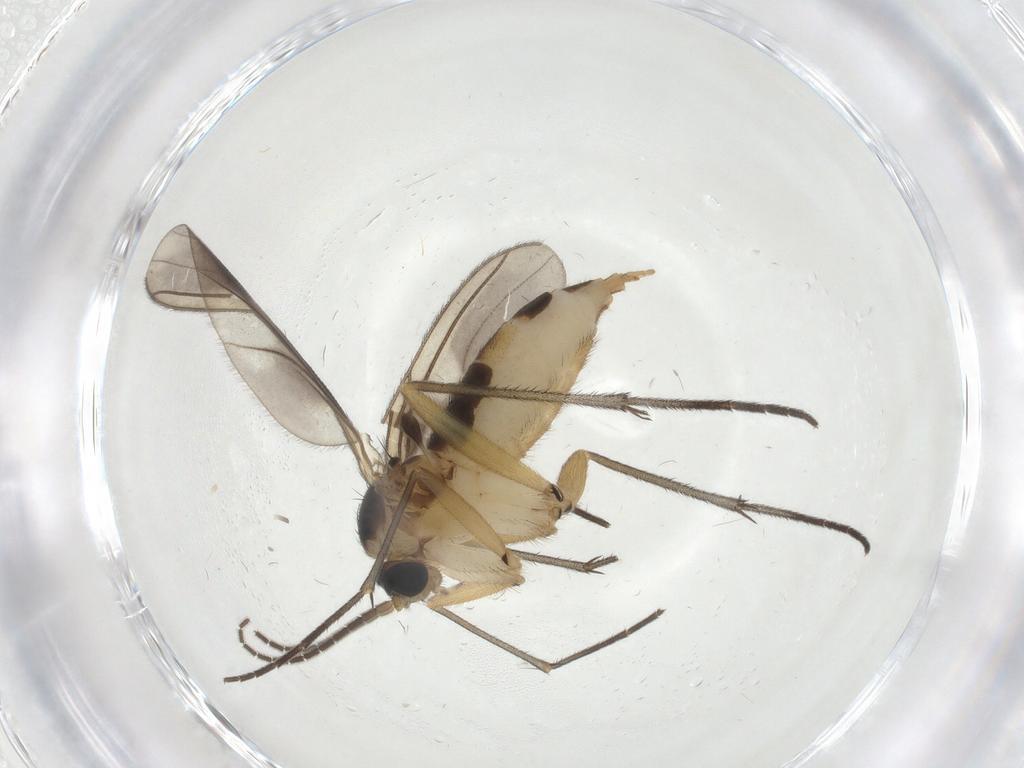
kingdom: Animalia
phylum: Arthropoda
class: Insecta
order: Diptera
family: Sciaridae
